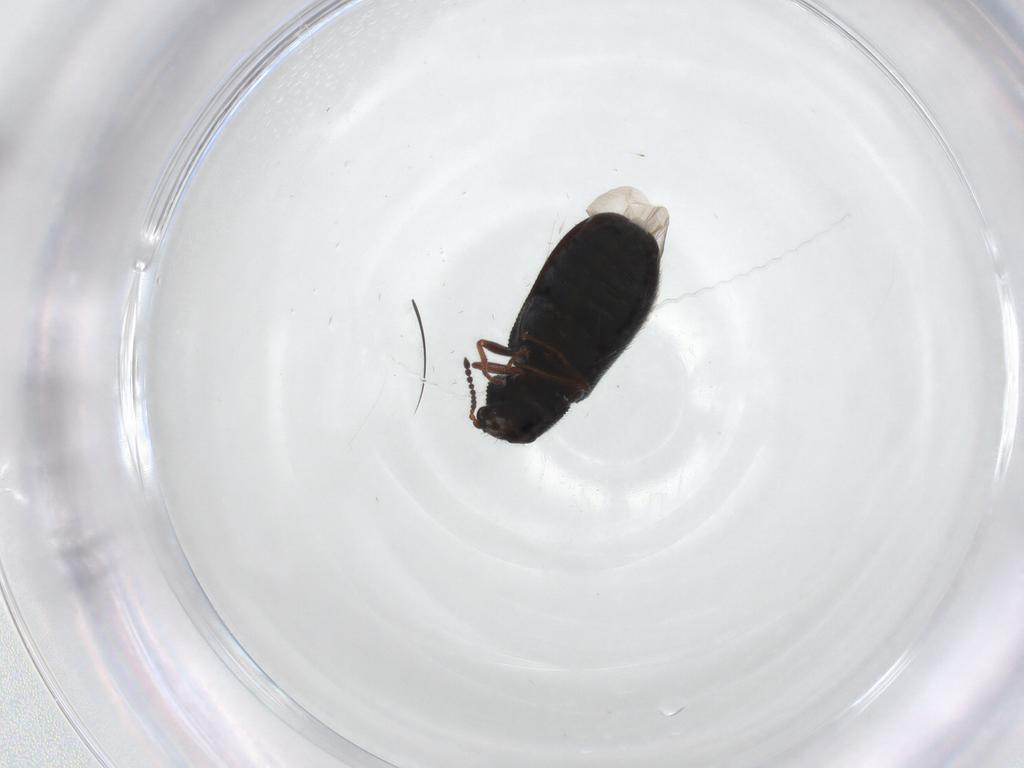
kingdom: Animalia
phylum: Arthropoda
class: Insecta
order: Coleoptera
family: Melyridae
